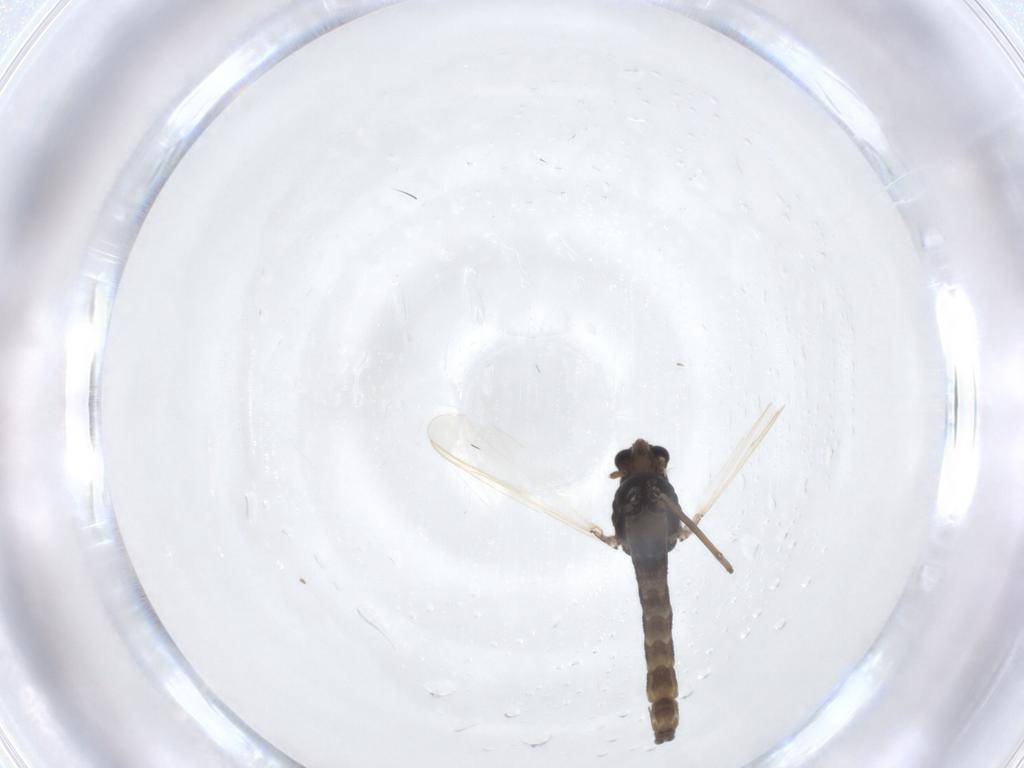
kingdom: Animalia
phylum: Arthropoda
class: Insecta
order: Diptera
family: Chironomidae
